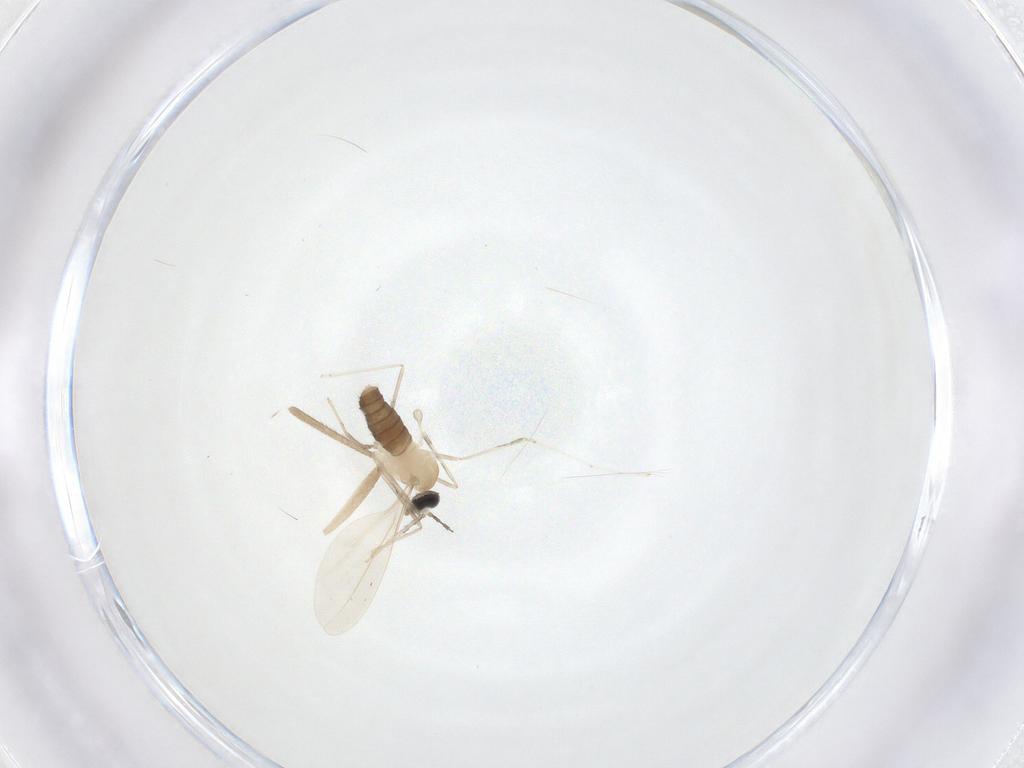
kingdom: Animalia
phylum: Arthropoda
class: Insecta
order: Diptera
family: Cecidomyiidae
